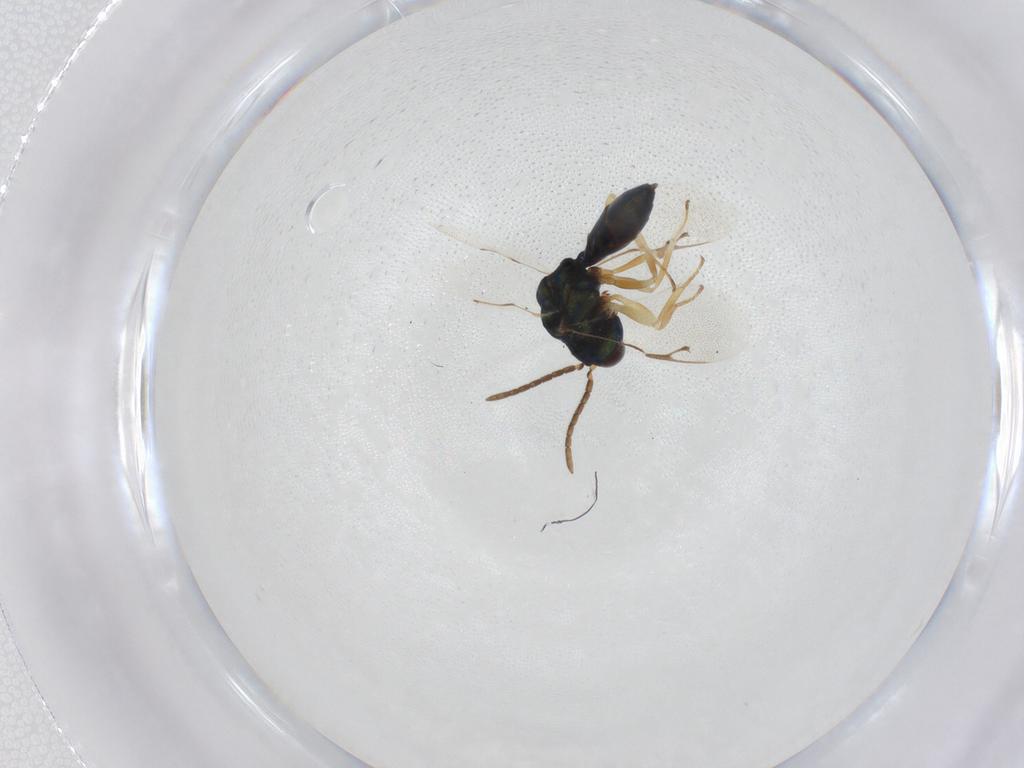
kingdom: Animalia
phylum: Arthropoda
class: Insecta
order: Hymenoptera
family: Pteromalidae
